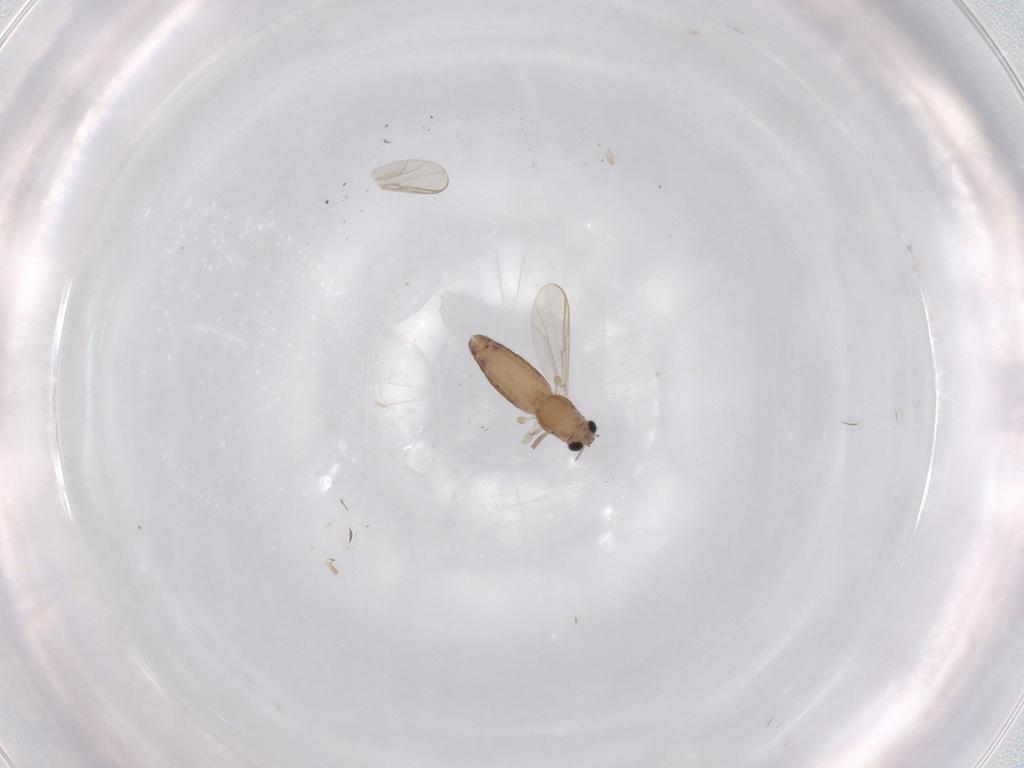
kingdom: Animalia
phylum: Arthropoda
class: Insecta
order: Diptera
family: Chironomidae
